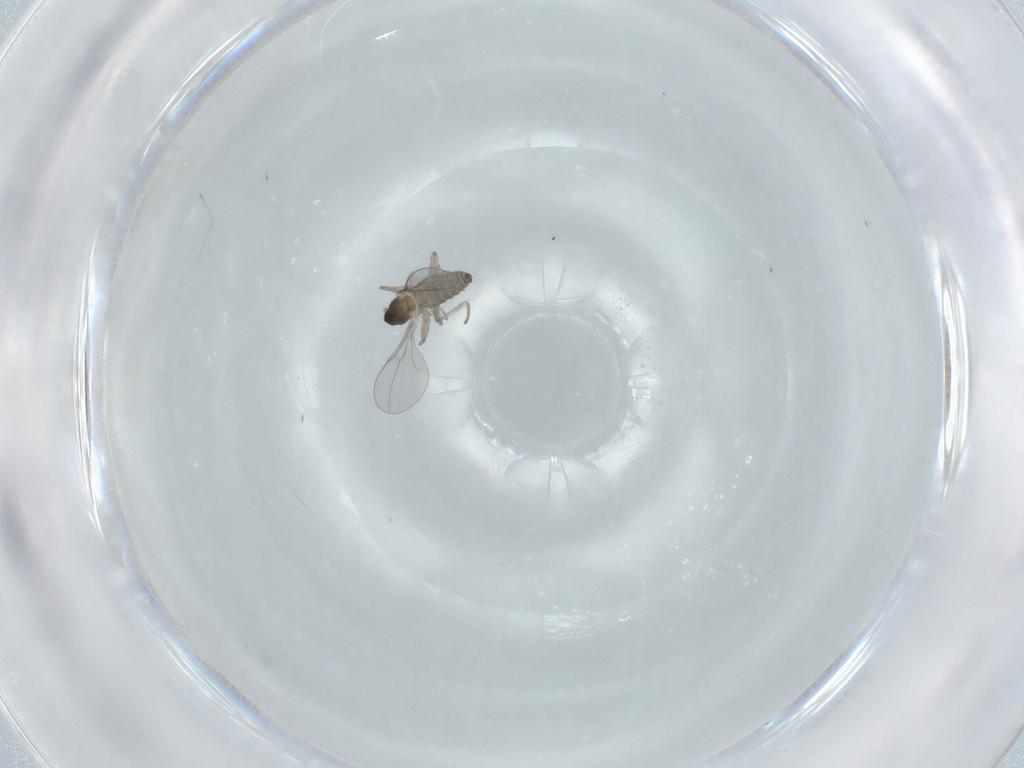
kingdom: Animalia
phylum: Arthropoda
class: Insecta
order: Diptera
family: Cecidomyiidae
